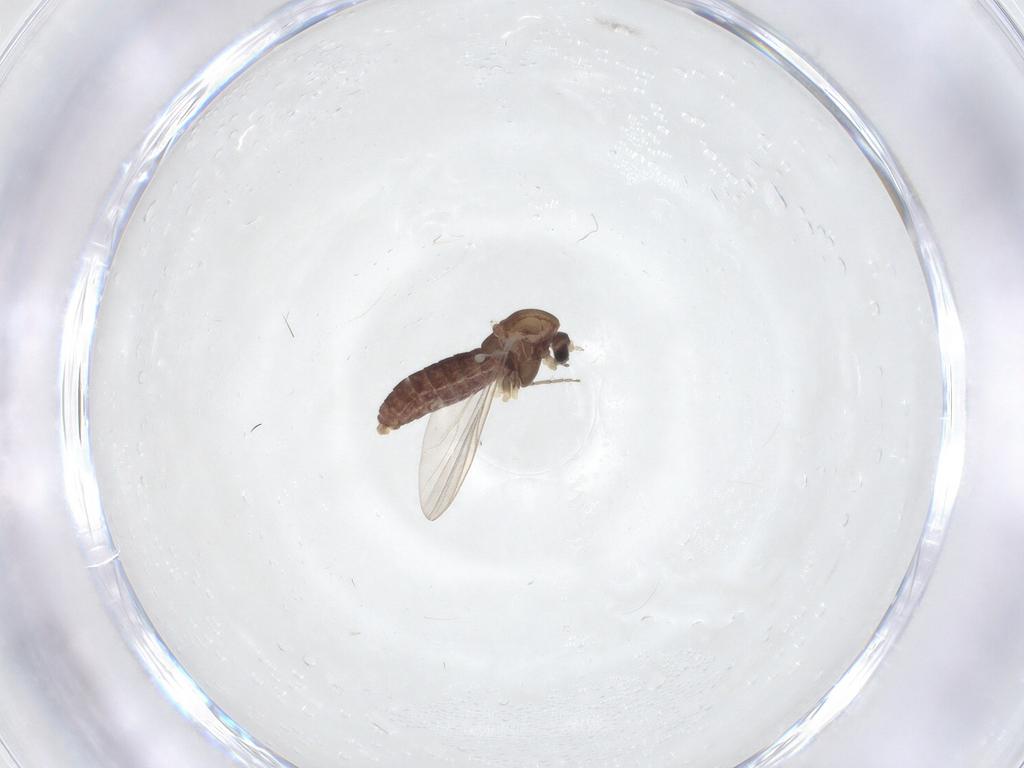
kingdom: Animalia
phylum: Arthropoda
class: Insecta
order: Diptera
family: Chironomidae
